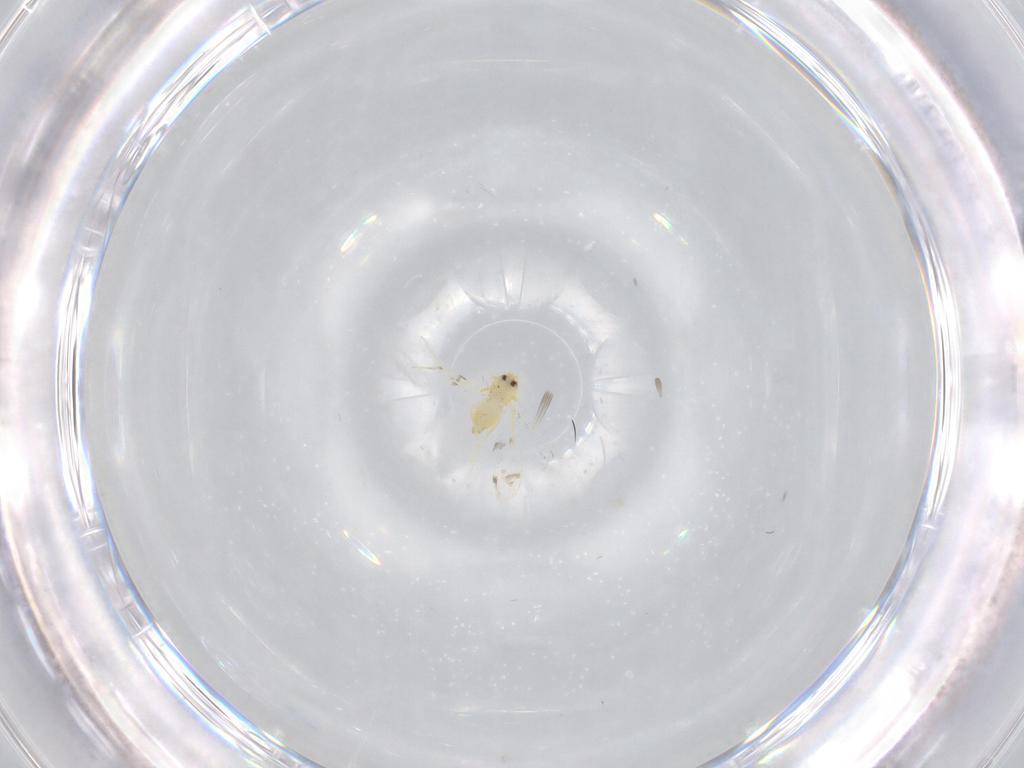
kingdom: Animalia
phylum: Arthropoda
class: Insecta
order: Hemiptera
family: Aleyrodidae
